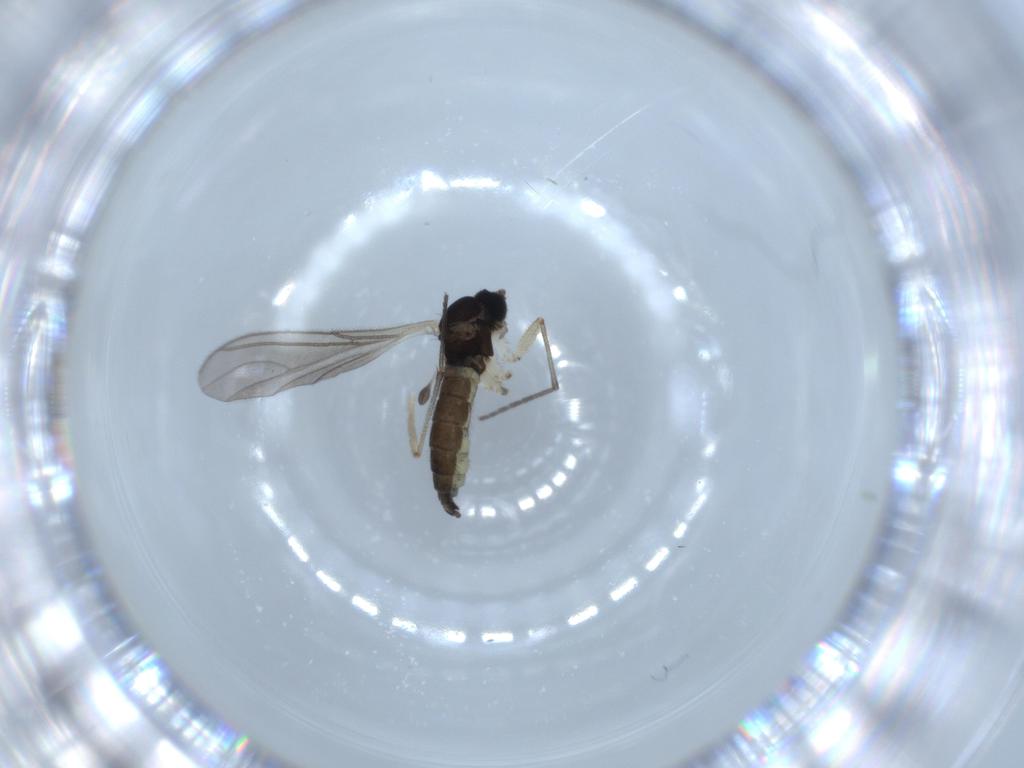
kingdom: Animalia
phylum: Arthropoda
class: Insecta
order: Diptera
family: Sciaridae
